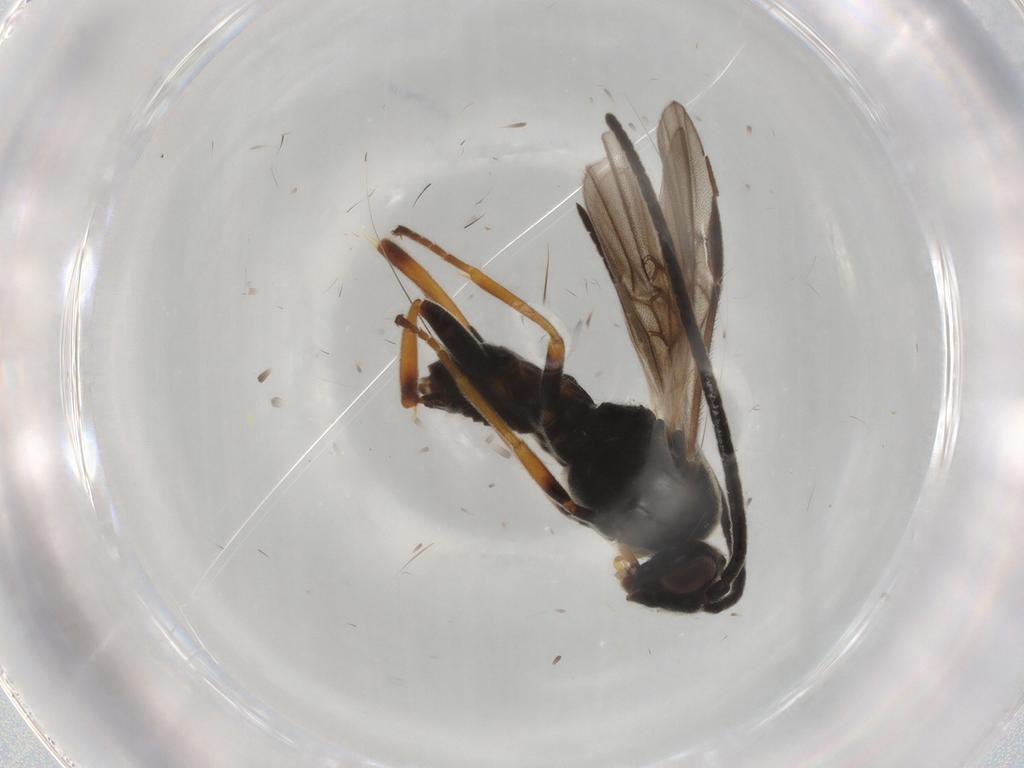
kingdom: Animalia
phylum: Arthropoda
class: Insecta
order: Hymenoptera
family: Braconidae
